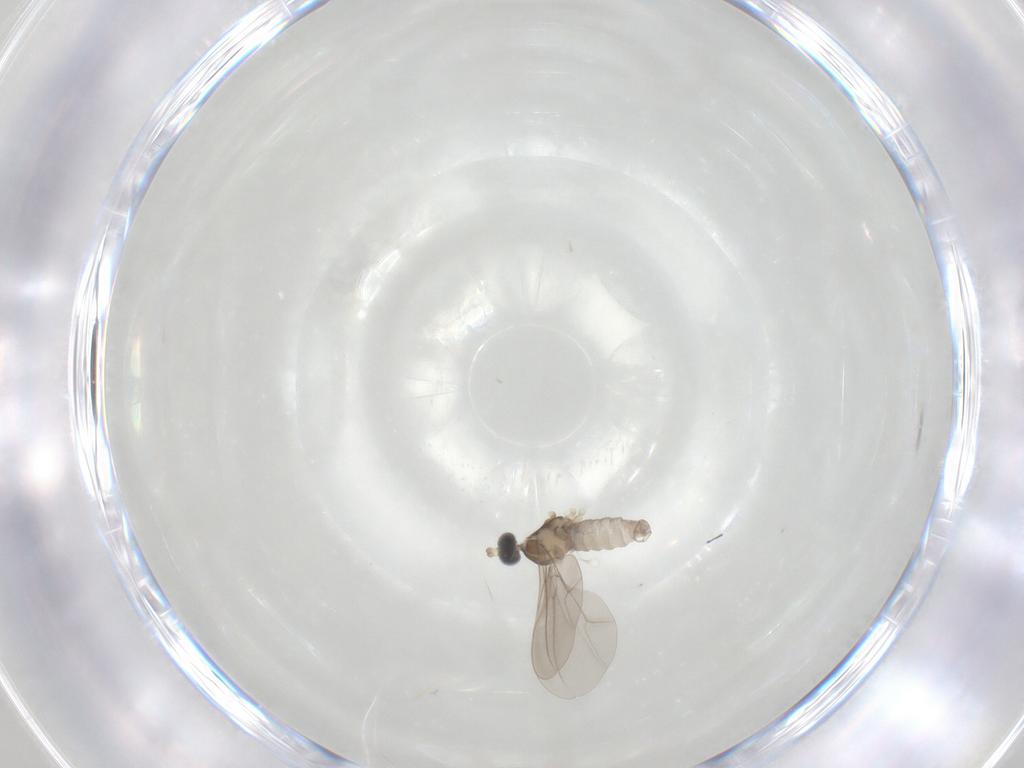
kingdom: Animalia
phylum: Arthropoda
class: Insecta
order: Diptera
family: Cecidomyiidae
